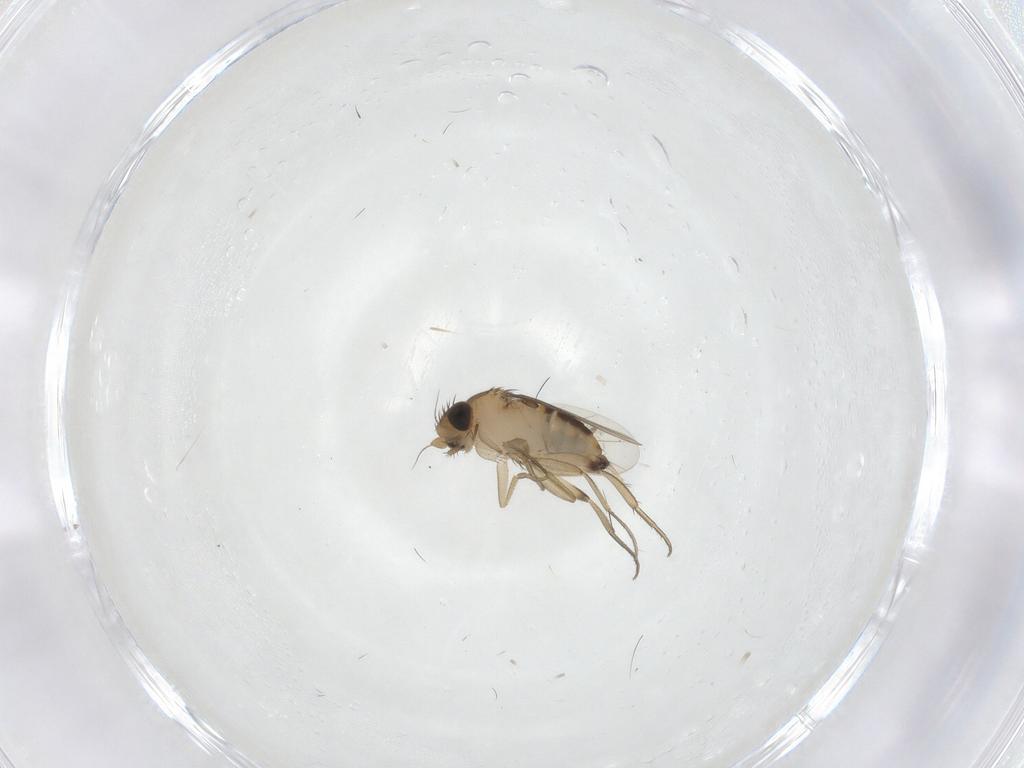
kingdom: Animalia
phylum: Arthropoda
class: Insecta
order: Diptera
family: Phoridae
